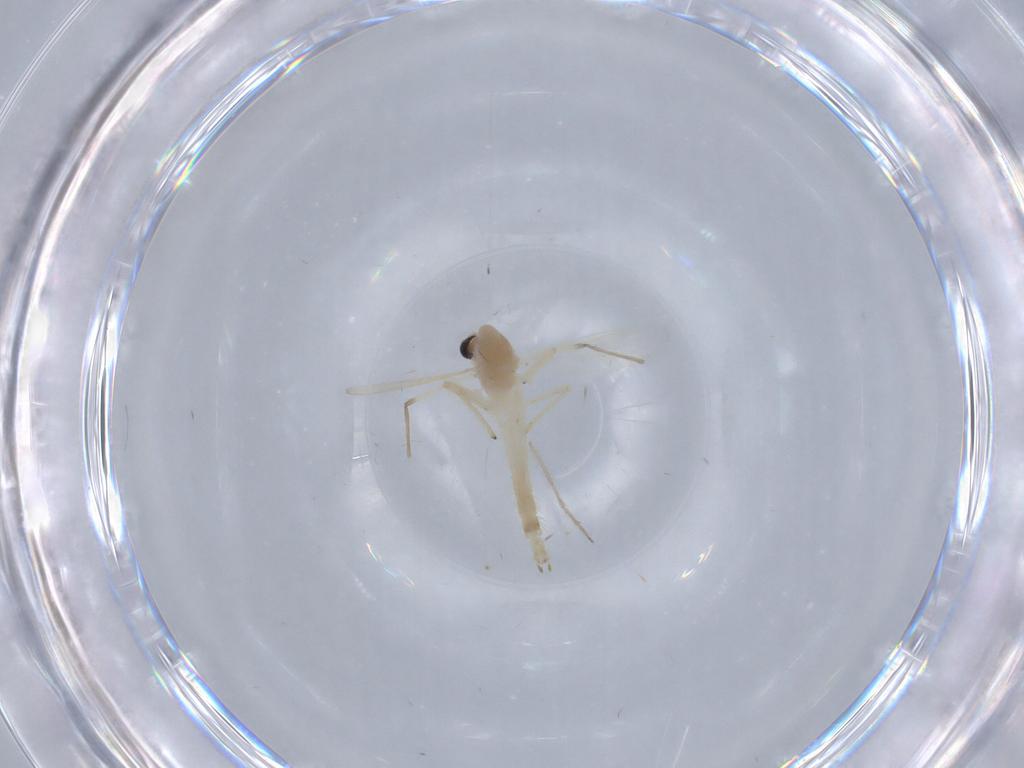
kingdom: Animalia
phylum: Arthropoda
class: Insecta
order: Diptera
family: Chironomidae
